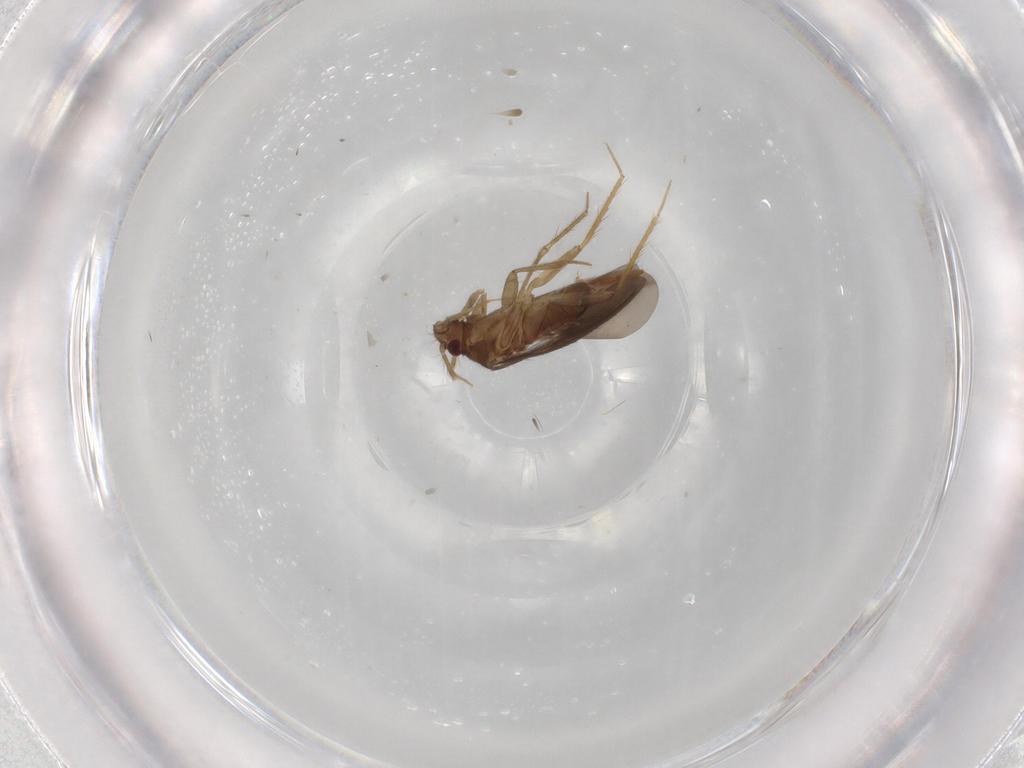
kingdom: Animalia
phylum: Arthropoda
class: Insecta
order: Hemiptera
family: Ceratocombidae
